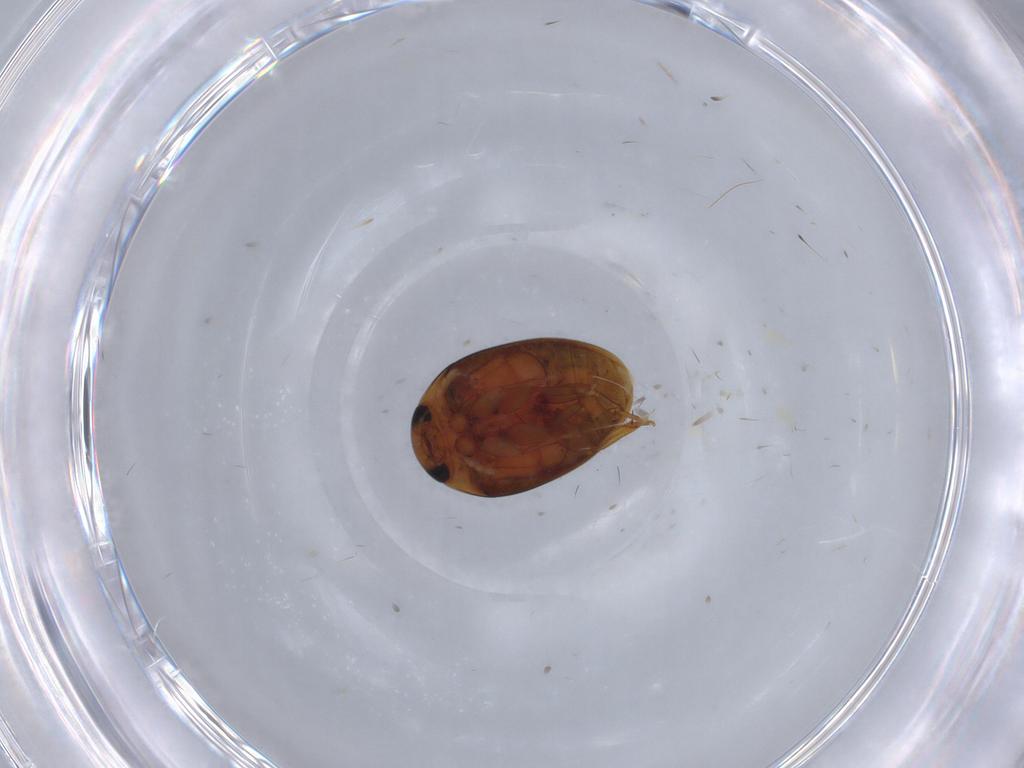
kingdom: Animalia
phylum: Arthropoda
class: Insecta
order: Coleoptera
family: Phalacridae
